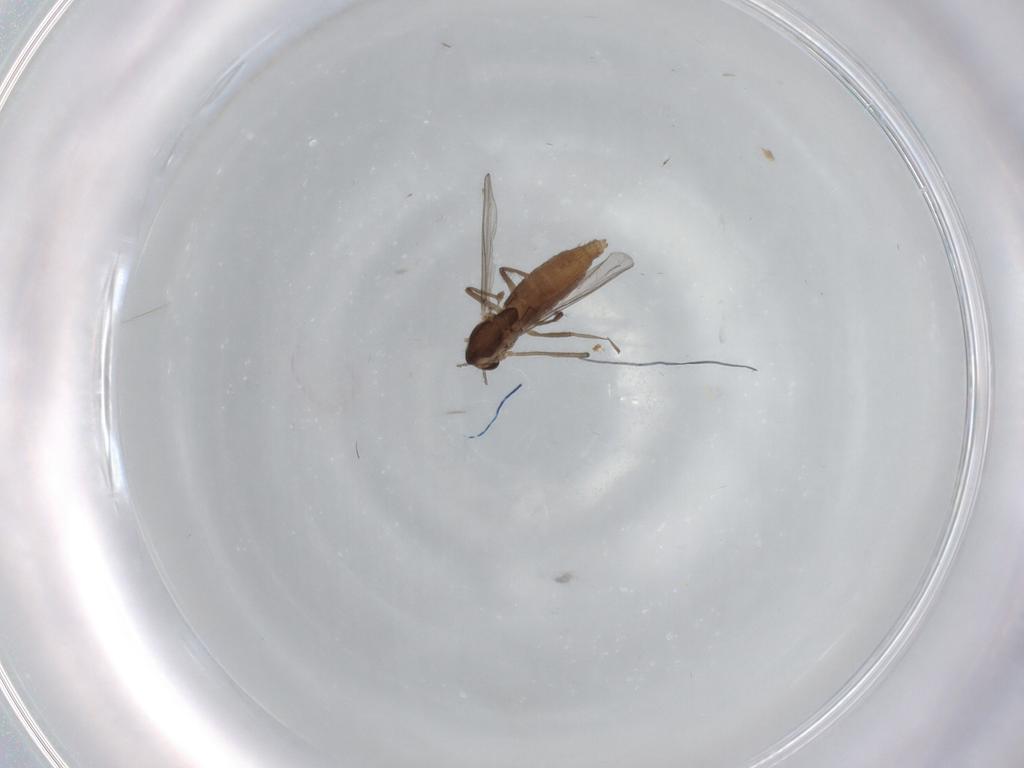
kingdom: Animalia
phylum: Arthropoda
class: Insecta
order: Diptera
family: Chironomidae
